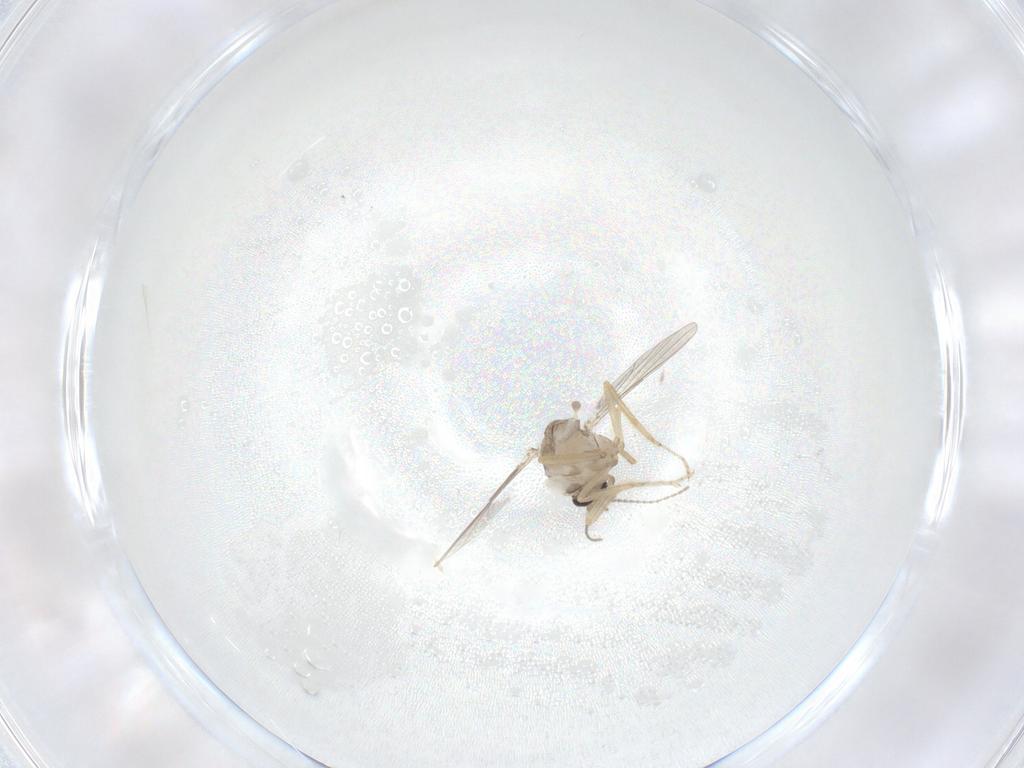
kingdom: Animalia
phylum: Arthropoda
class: Insecta
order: Diptera
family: Ceratopogonidae
